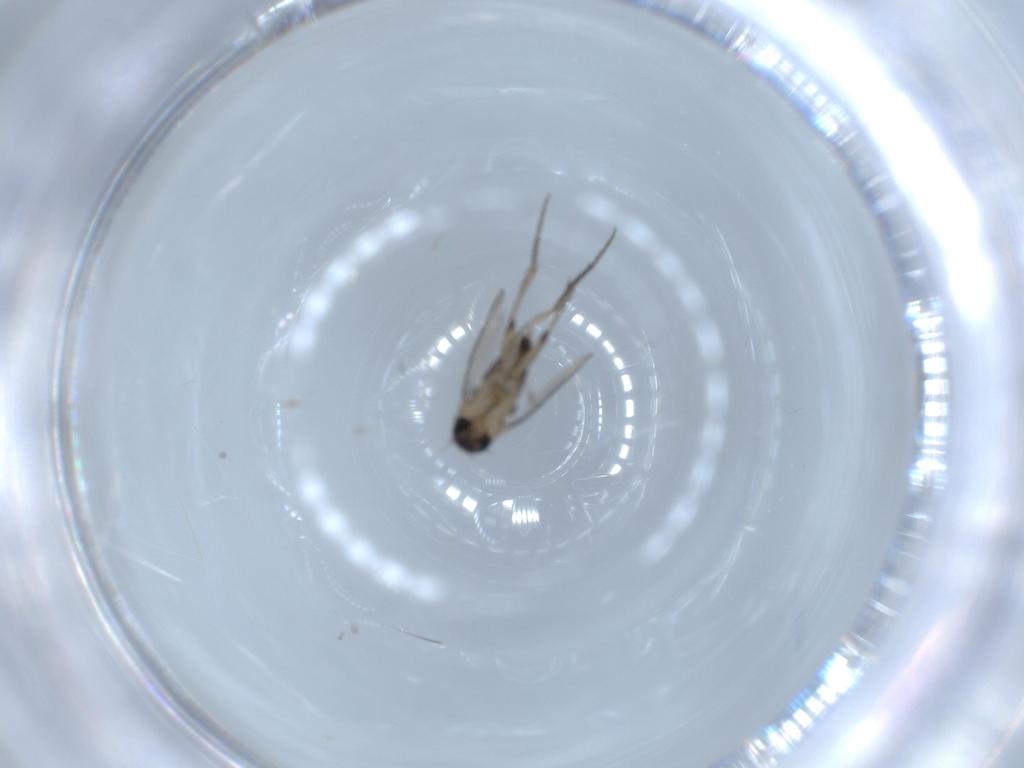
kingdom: Animalia
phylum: Arthropoda
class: Insecta
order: Diptera
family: Phoridae
